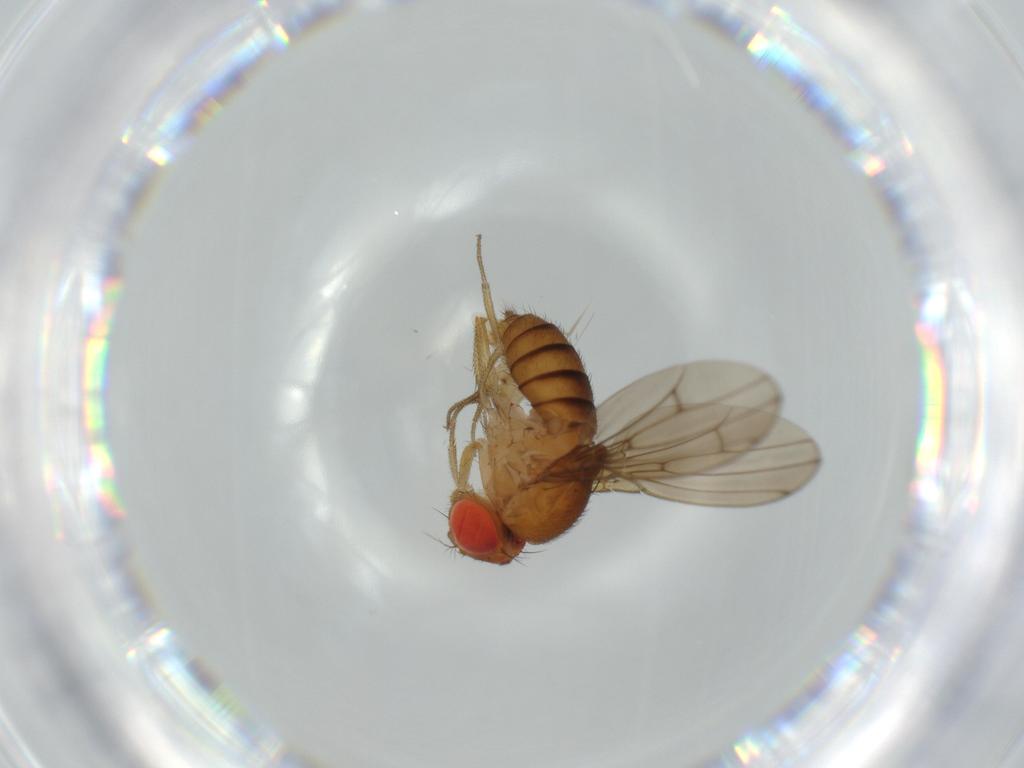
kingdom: Animalia
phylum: Arthropoda
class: Insecta
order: Diptera
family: Drosophilidae
